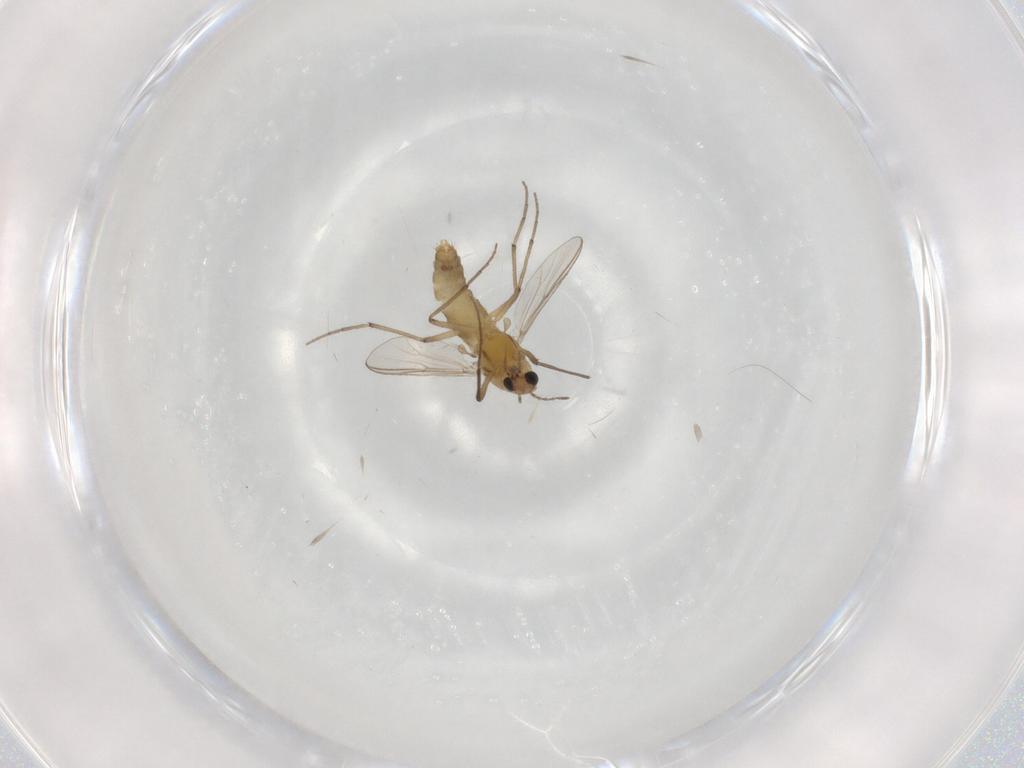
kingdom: Animalia
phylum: Arthropoda
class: Insecta
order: Diptera
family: Chironomidae
